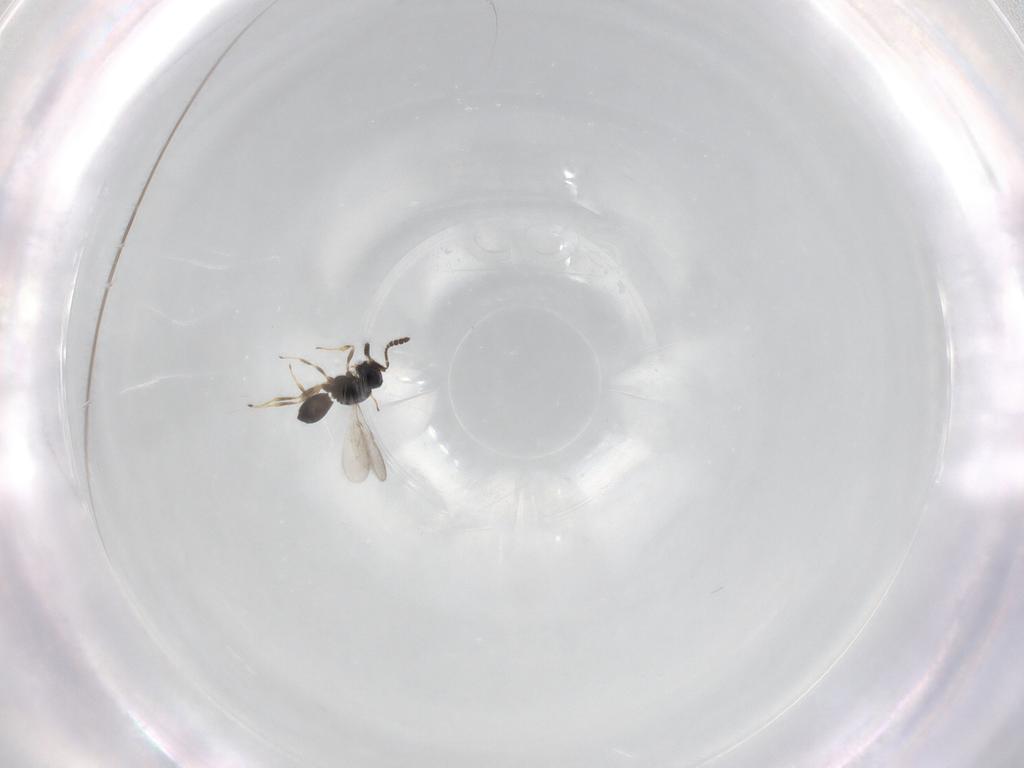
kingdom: Animalia
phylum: Arthropoda
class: Insecta
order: Hymenoptera
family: Scelionidae
